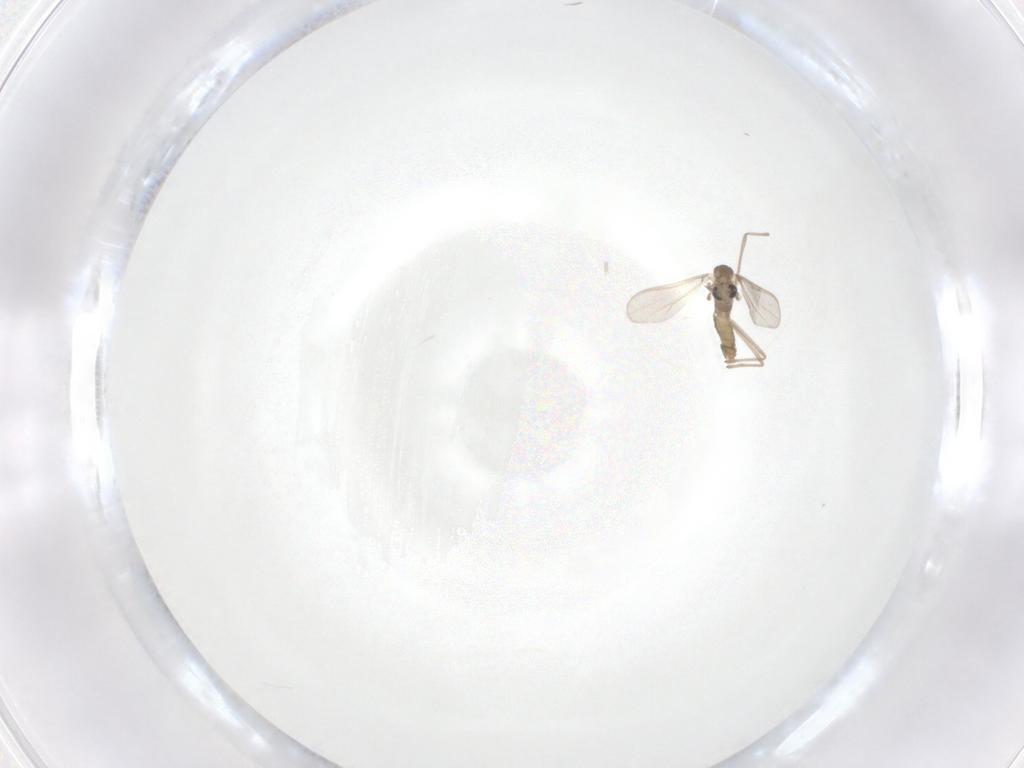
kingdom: Animalia
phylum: Arthropoda
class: Insecta
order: Diptera
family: Chironomidae
